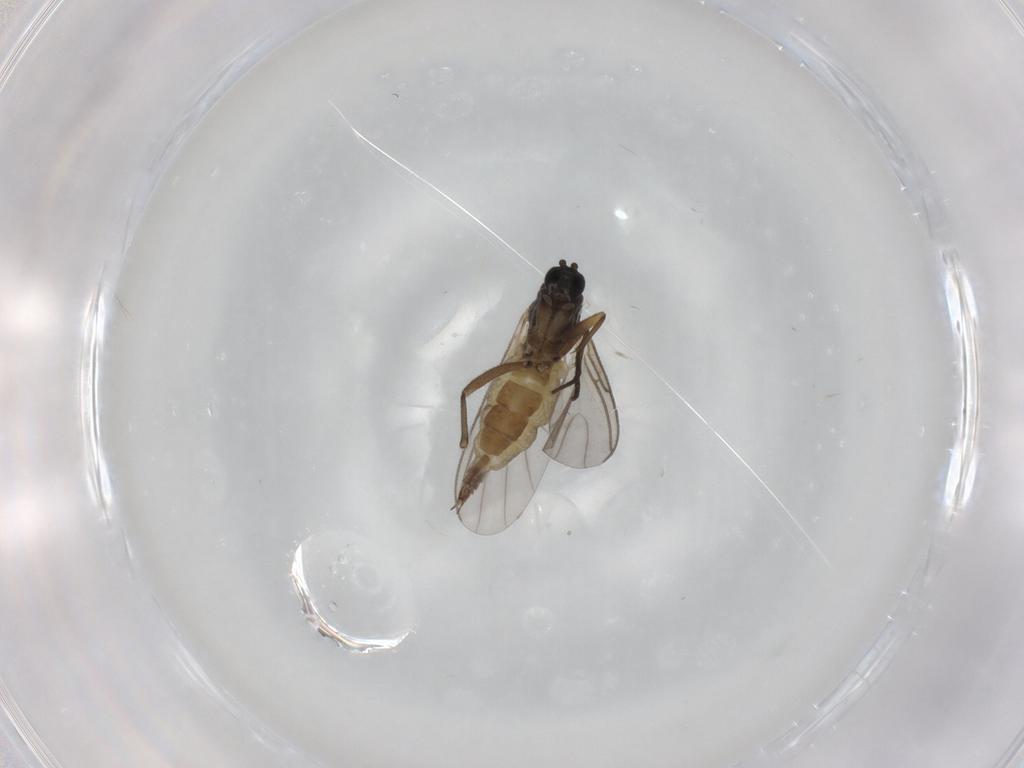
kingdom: Animalia
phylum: Arthropoda
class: Insecta
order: Diptera
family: Sciaridae
